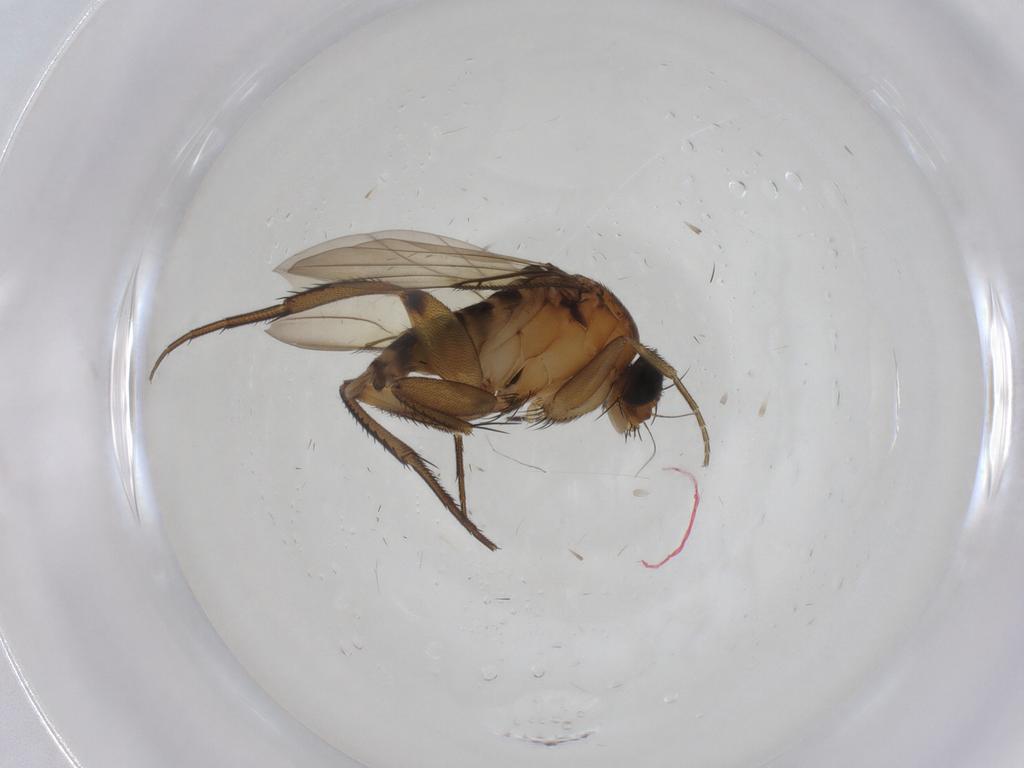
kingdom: Animalia
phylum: Arthropoda
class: Insecta
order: Diptera
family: Sciaridae
